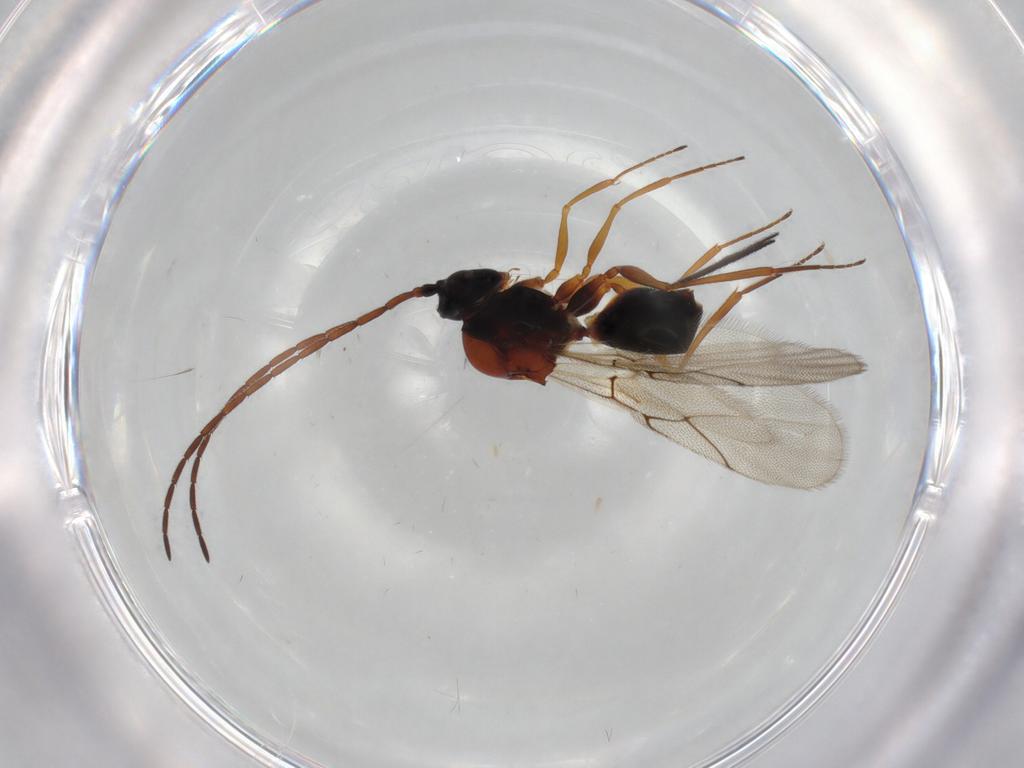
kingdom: Animalia
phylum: Arthropoda
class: Insecta
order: Hymenoptera
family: Figitidae
